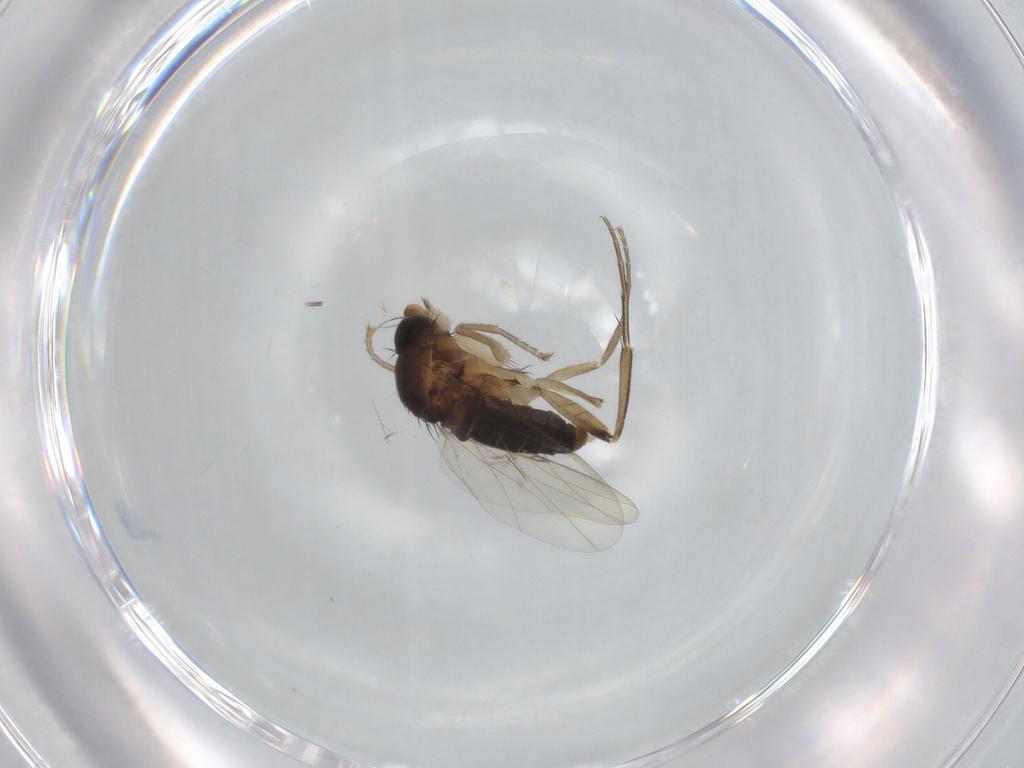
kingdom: Animalia
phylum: Arthropoda
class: Insecta
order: Diptera
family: Phoridae
